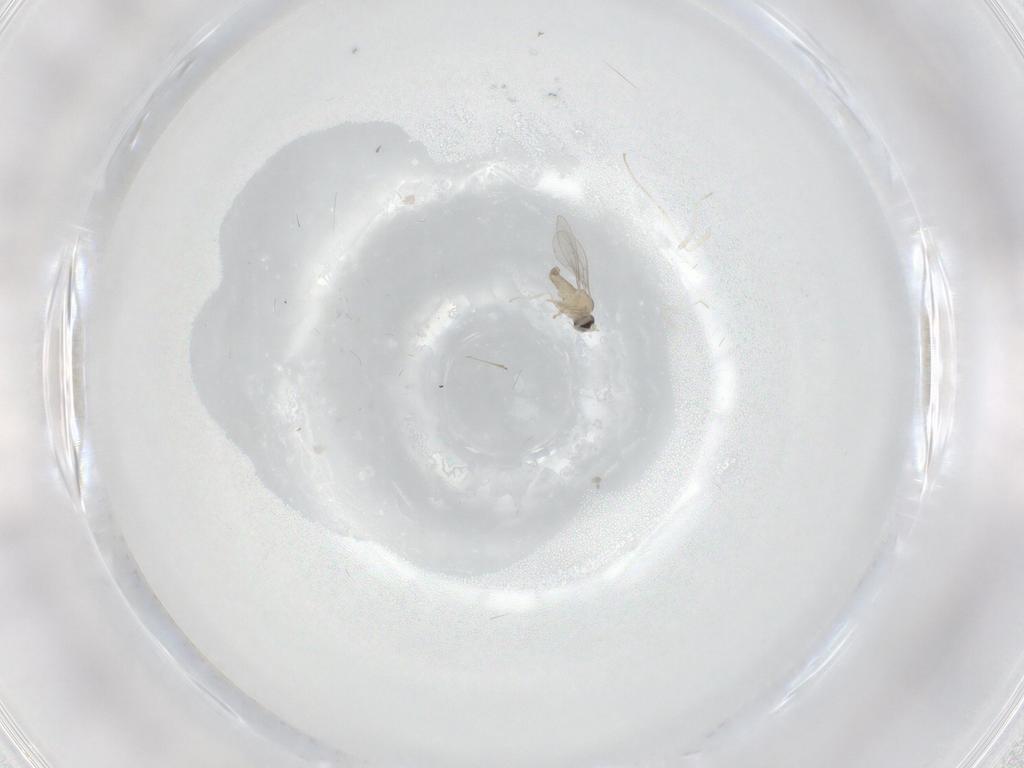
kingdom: Animalia
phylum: Arthropoda
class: Insecta
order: Diptera
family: Cecidomyiidae
